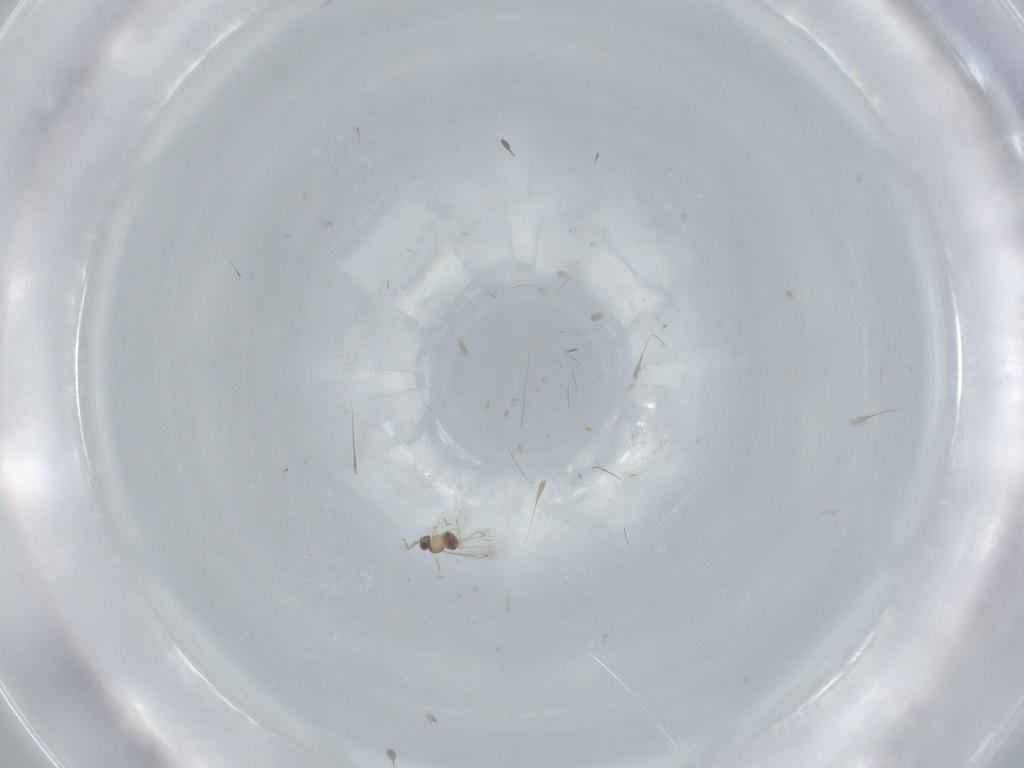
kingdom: Animalia
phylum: Arthropoda
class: Insecta
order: Hymenoptera
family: Mymaridae
